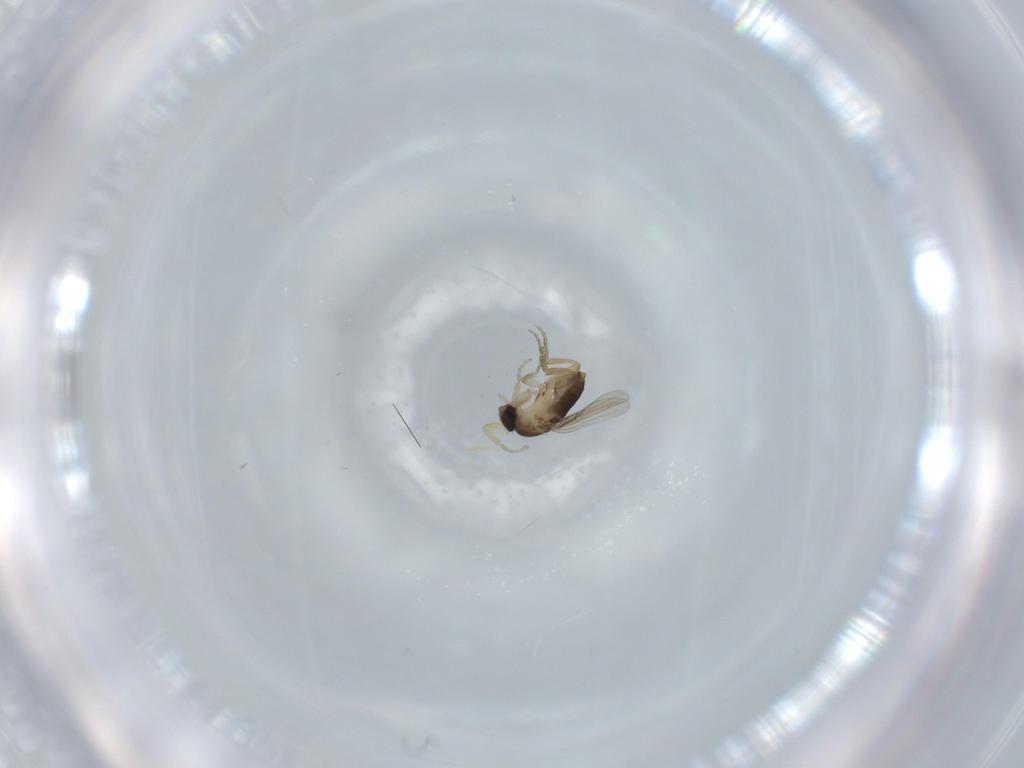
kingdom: Animalia
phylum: Arthropoda
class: Insecta
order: Diptera
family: Phoridae
